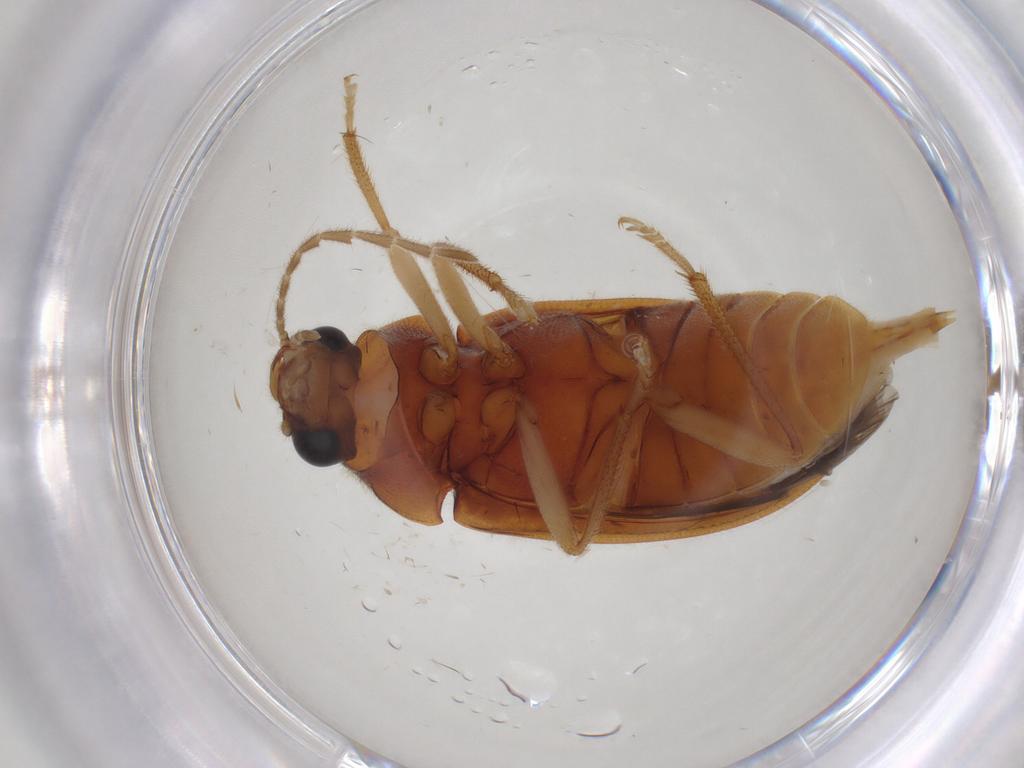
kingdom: Animalia
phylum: Arthropoda
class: Insecta
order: Coleoptera
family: Ptilodactylidae
